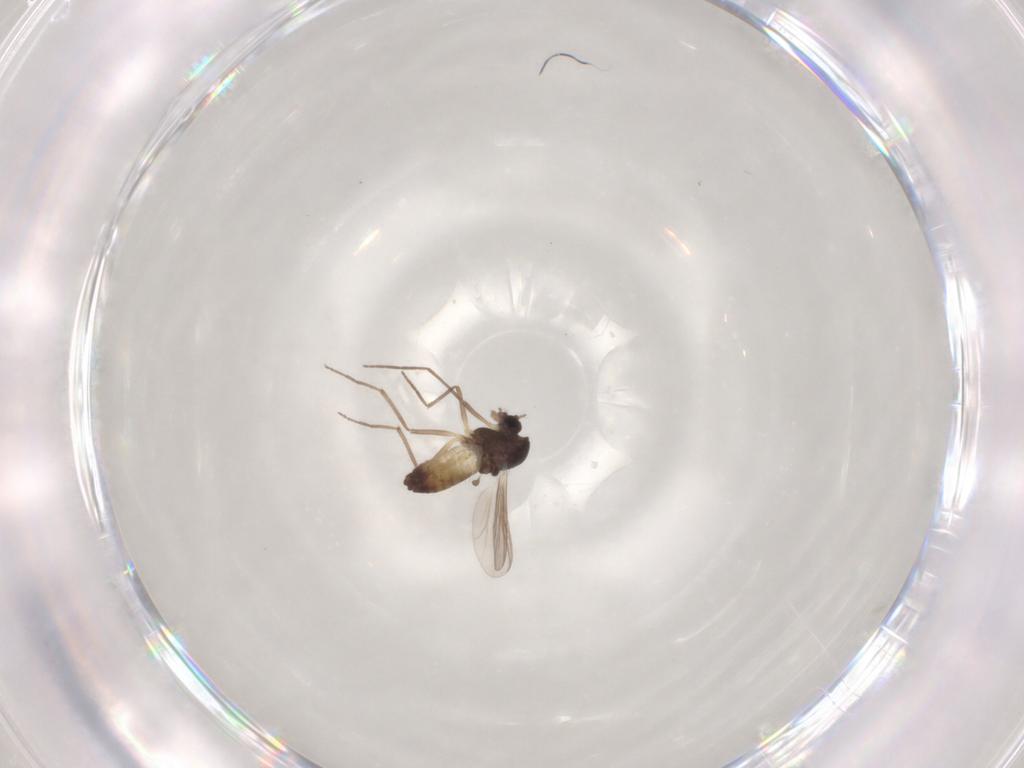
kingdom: Animalia
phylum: Arthropoda
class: Insecta
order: Diptera
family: Chironomidae
